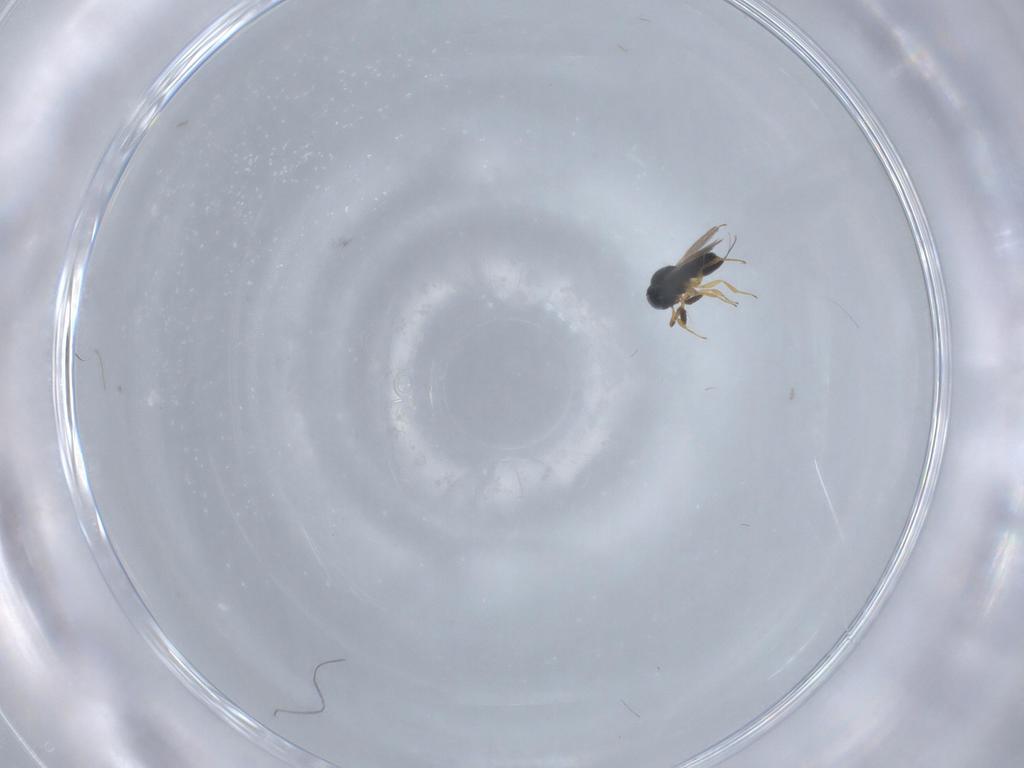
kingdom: Animalia
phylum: Arthropoda
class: Insecta
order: Hymenoptera
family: Scelionidae
